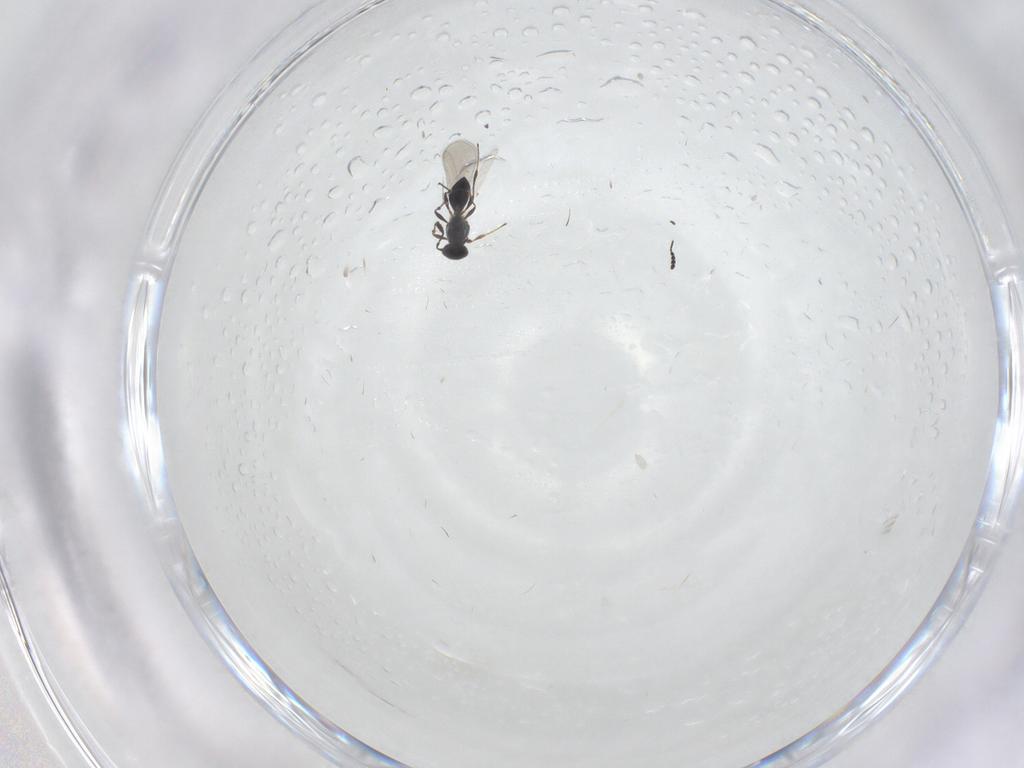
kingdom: Animalia
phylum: Arthropoda
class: Insecta
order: Hymenoptera
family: Platygastridae
